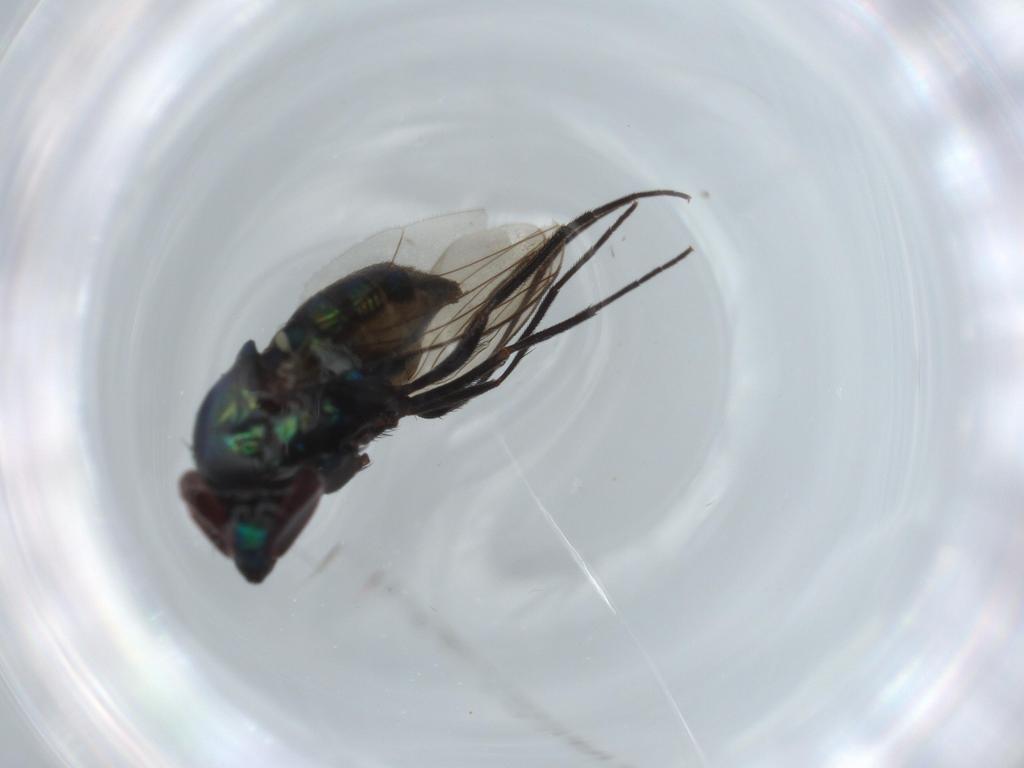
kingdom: Animalia
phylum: Arthropoda
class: Insecta
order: Diptera
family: Dolichopodidae
